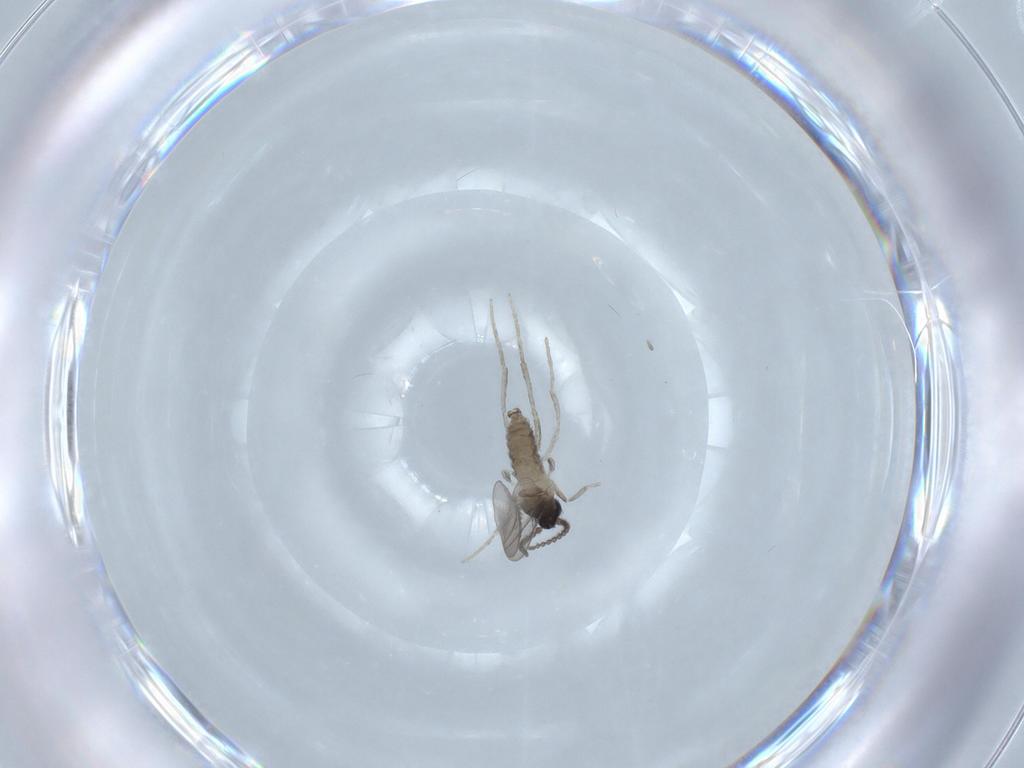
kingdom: Animalia
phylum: Arthropoda
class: Insecta
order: Diptera
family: Cecidomyiidae
